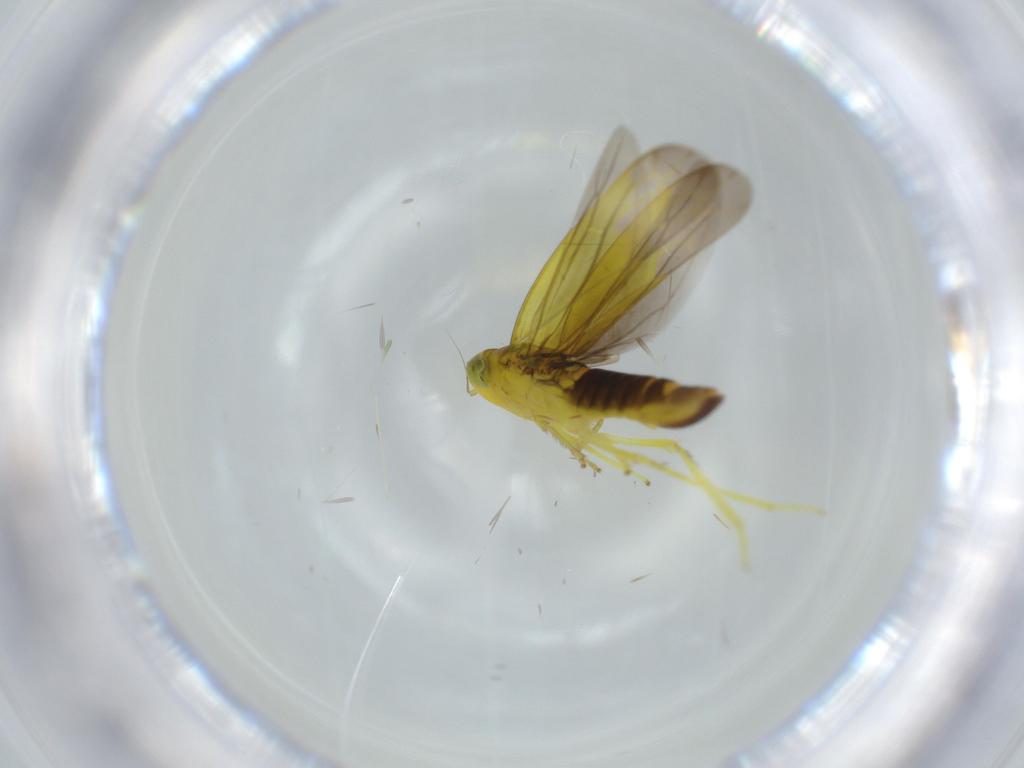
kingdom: Animalia
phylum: Arthropoda
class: Insecta
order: Hemiptera
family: Cicadellidae
